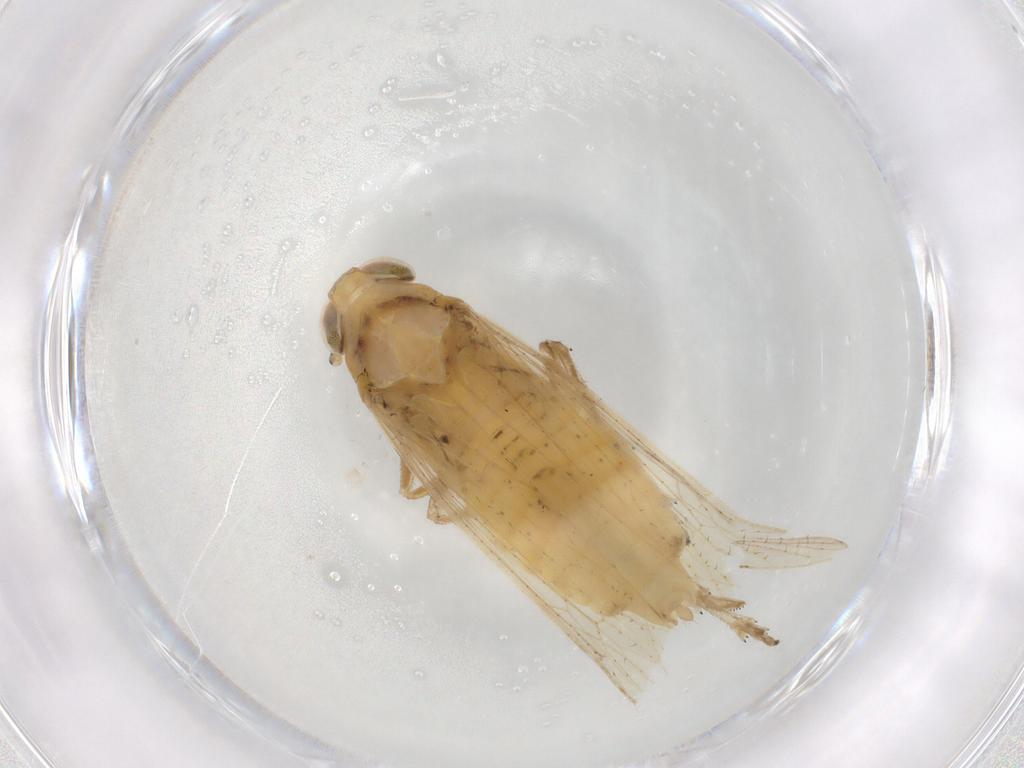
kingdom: Animalia
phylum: Arthropoda
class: Insecta
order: Hemiptera
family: Delphacidae
